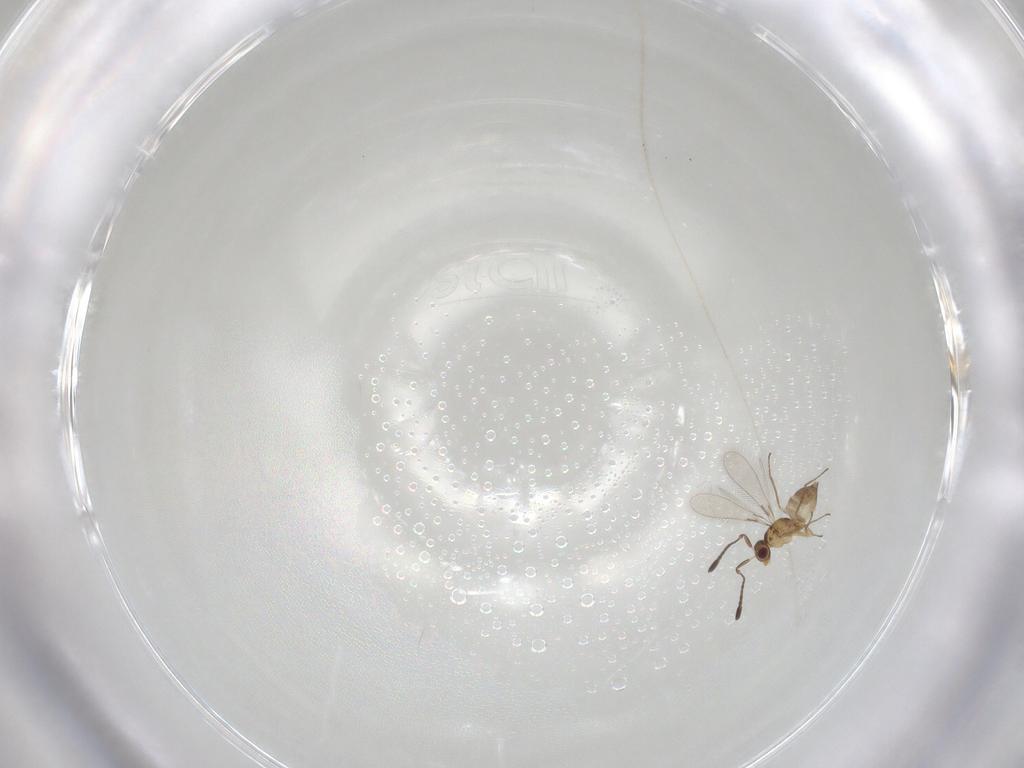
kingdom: Animalia
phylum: Arthropoda
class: Insecta
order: Hymenoptera
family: Mymaridae
